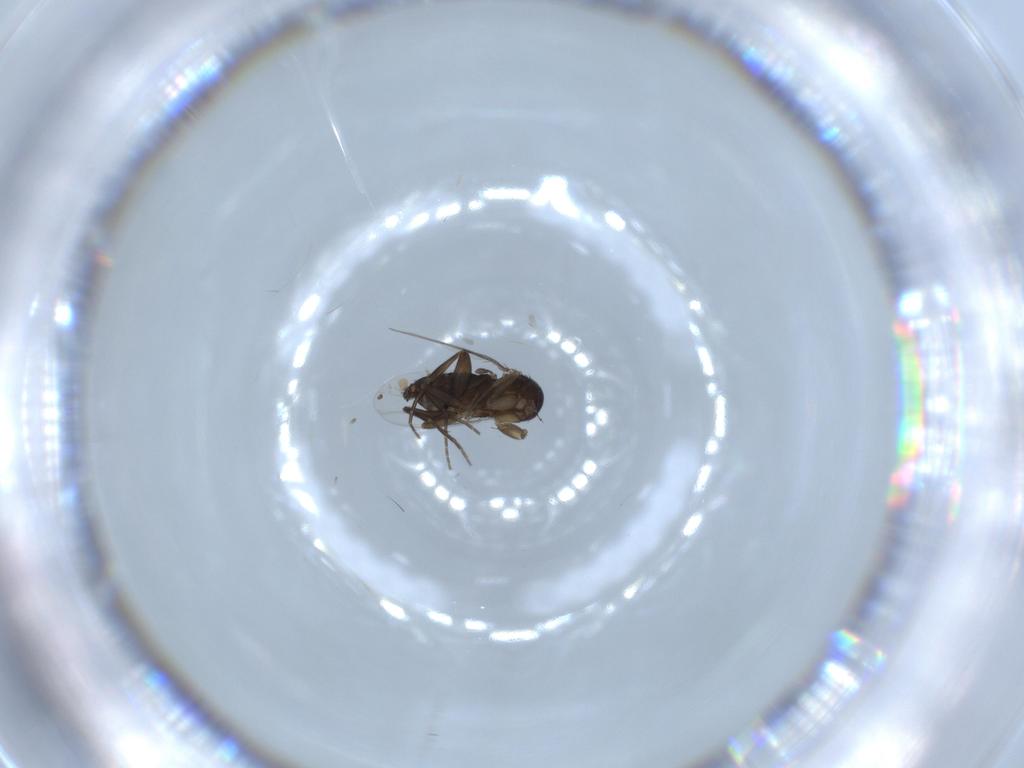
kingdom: Animalia
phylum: Arthropoda
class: Insecta
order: Diptera
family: Phoridae
